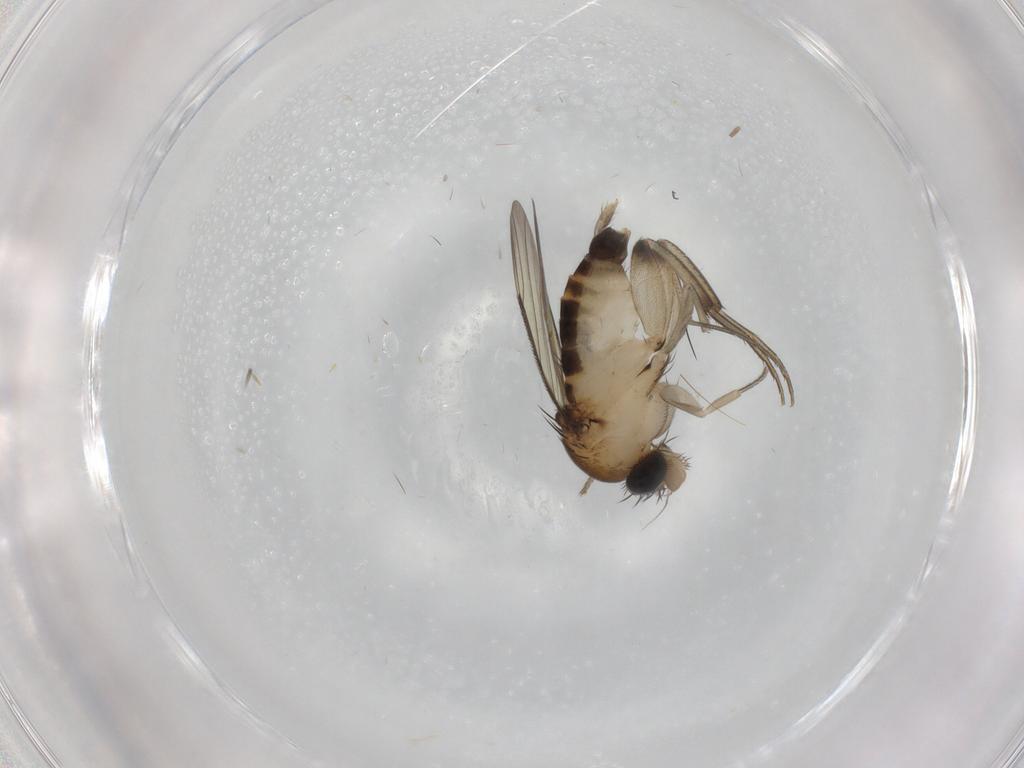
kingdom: Animalia
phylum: Arthropoda
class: Insecta
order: Diptera
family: Phoridae
